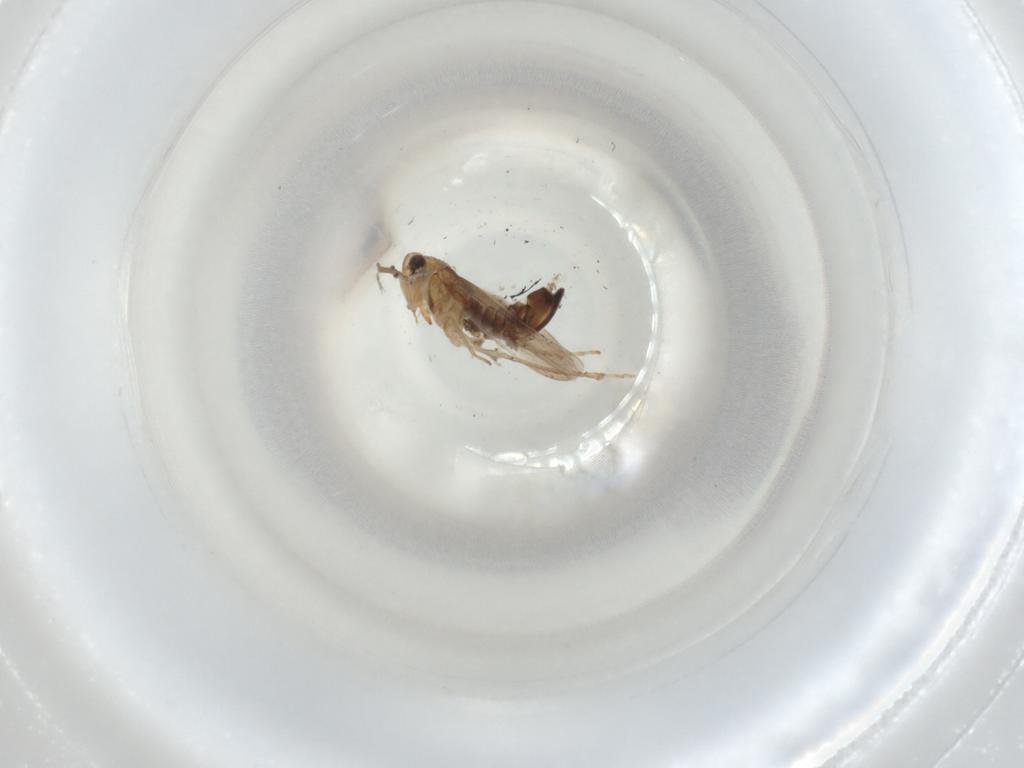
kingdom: Animalia
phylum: Arthropoda
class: Insecta
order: Hemiptera
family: Cicadellidae
